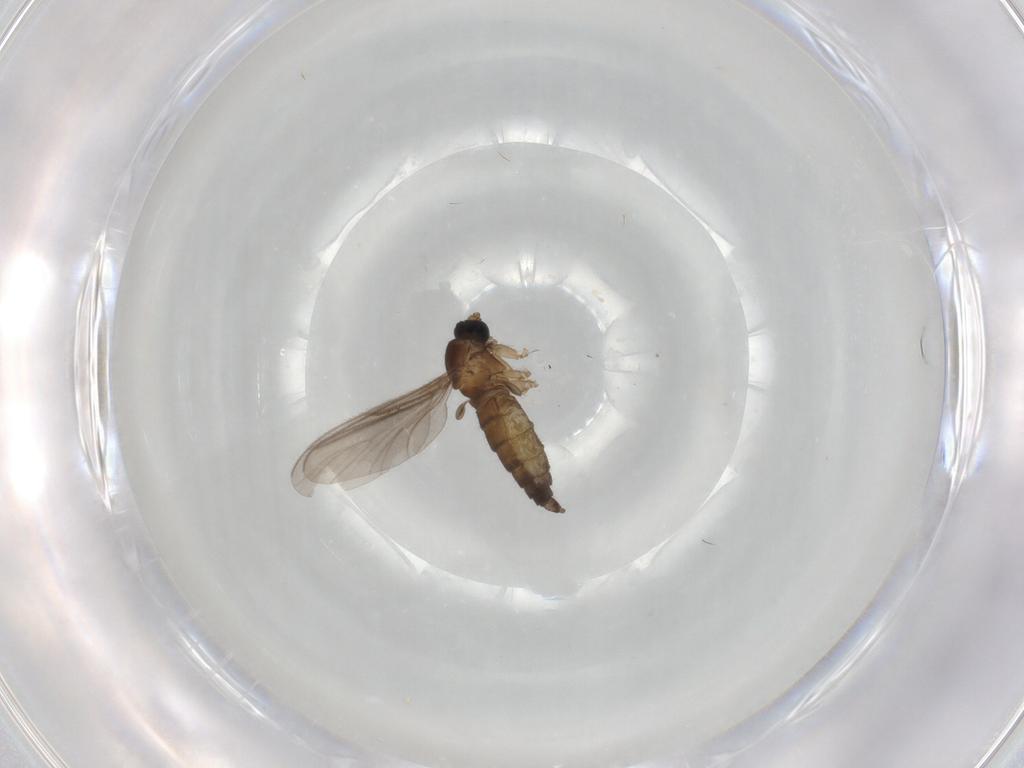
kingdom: Animalia
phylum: Arthropoda
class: Insecta
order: Diptera
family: Sciaridae
